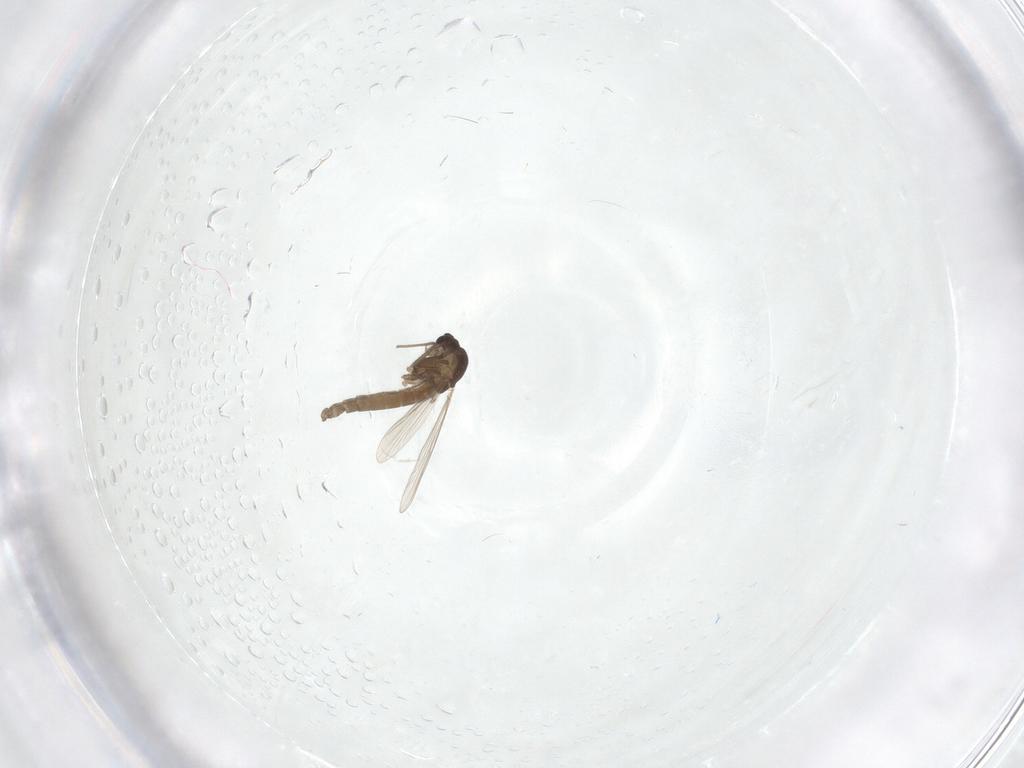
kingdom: Animalia
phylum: Arthropoda
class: Insecta
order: Diptera
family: Chironomidae
